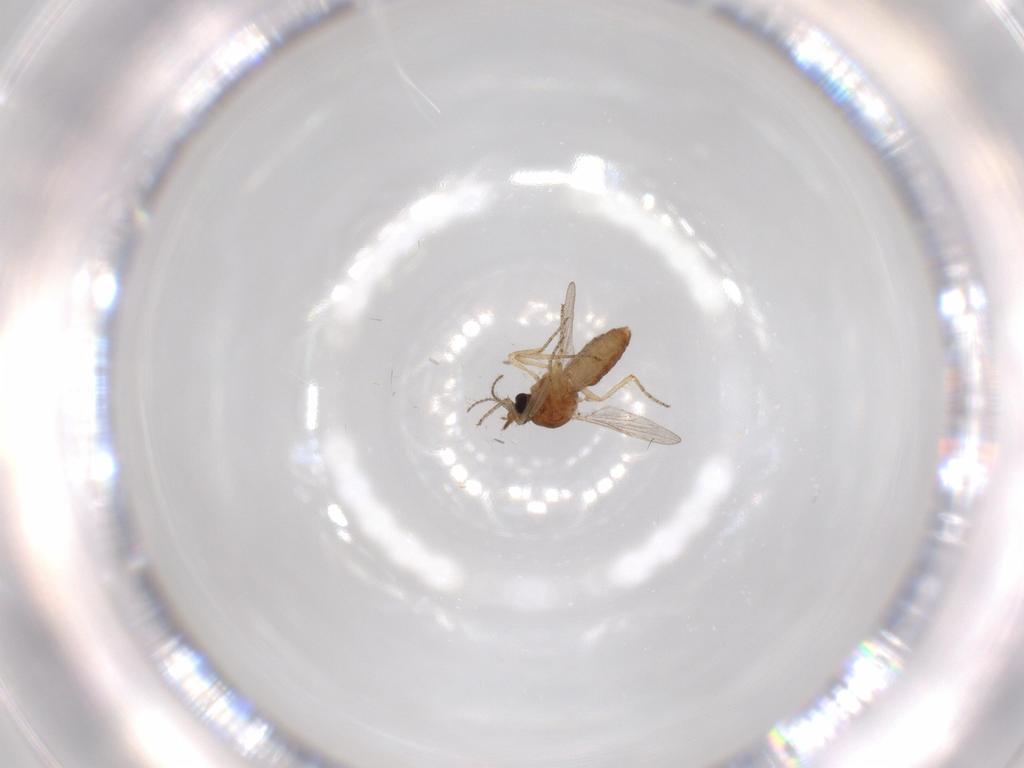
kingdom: Animalia
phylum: Arthropoda
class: Insecta
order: Diptera
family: Ceratopogonidae
